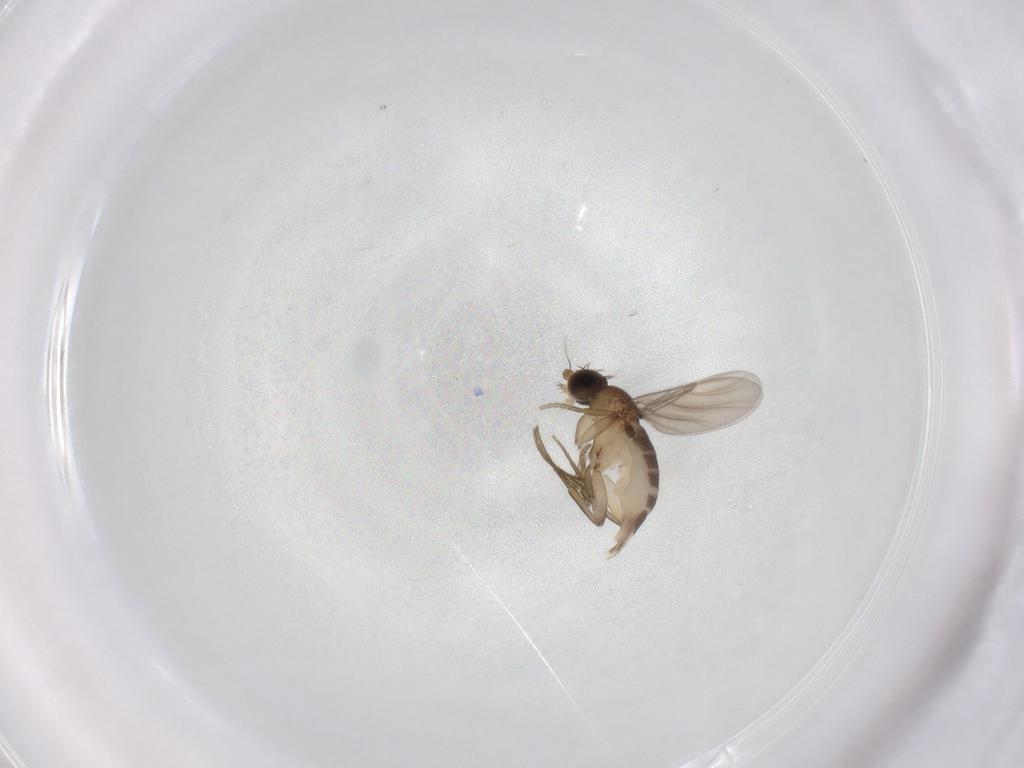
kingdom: Animalia
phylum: Arthropoda
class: Insecta
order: Diptera
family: Phoridae
